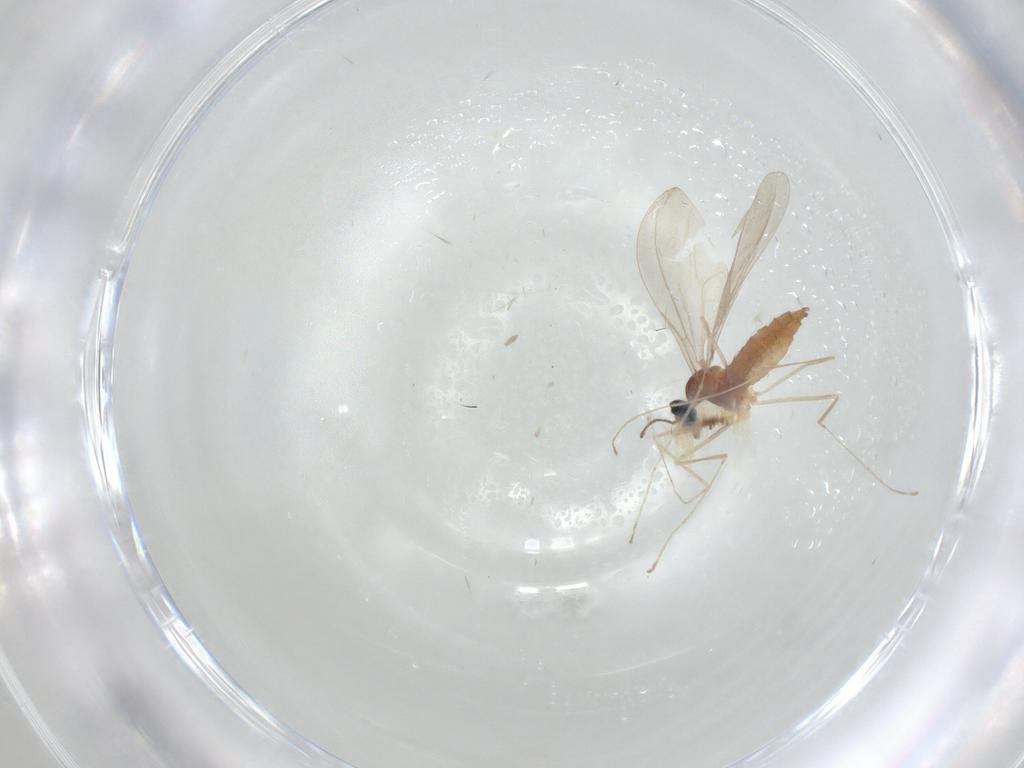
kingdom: Animalia
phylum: Arthropoda
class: Insecta
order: Diptera
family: Cecidomyiidae
